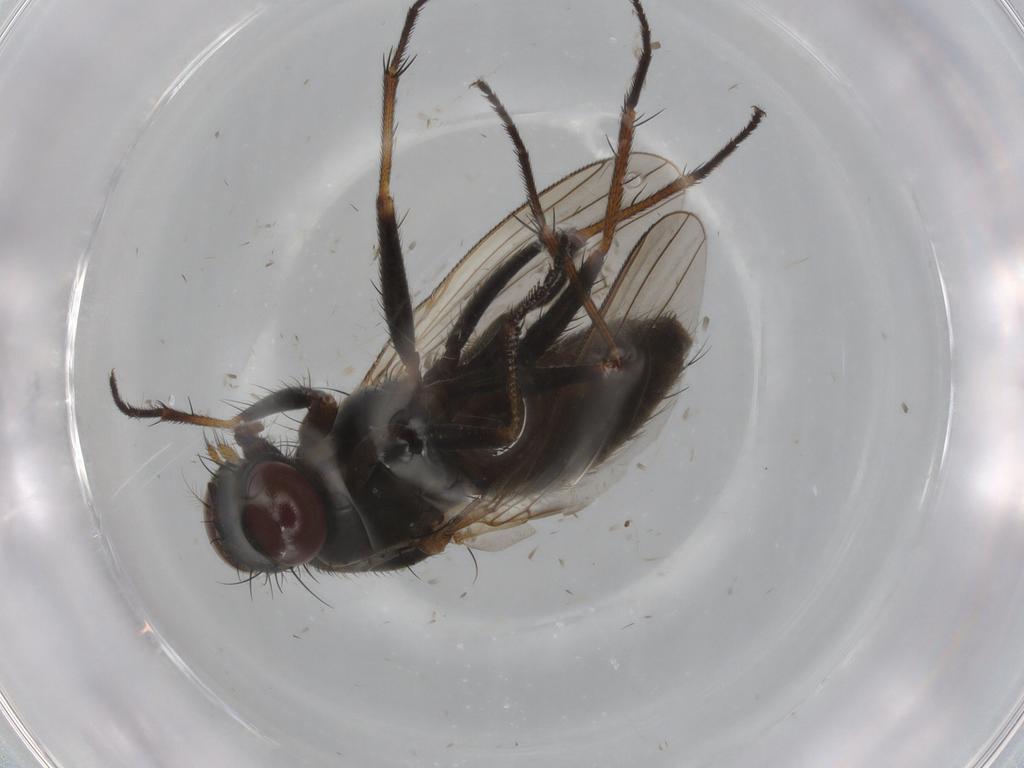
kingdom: Animalia
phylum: Arthropoda
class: Insecta
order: Diptera
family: Muscidae
